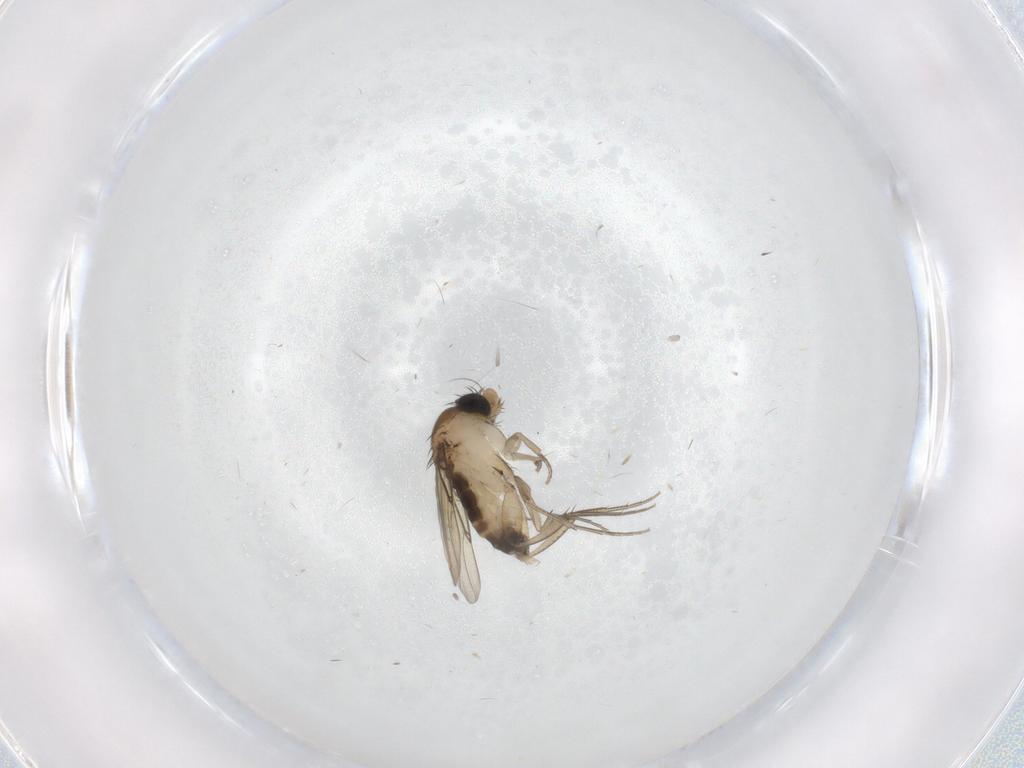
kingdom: Animalia
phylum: Arthropoda
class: Insecta
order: Diptera
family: Phoridae
